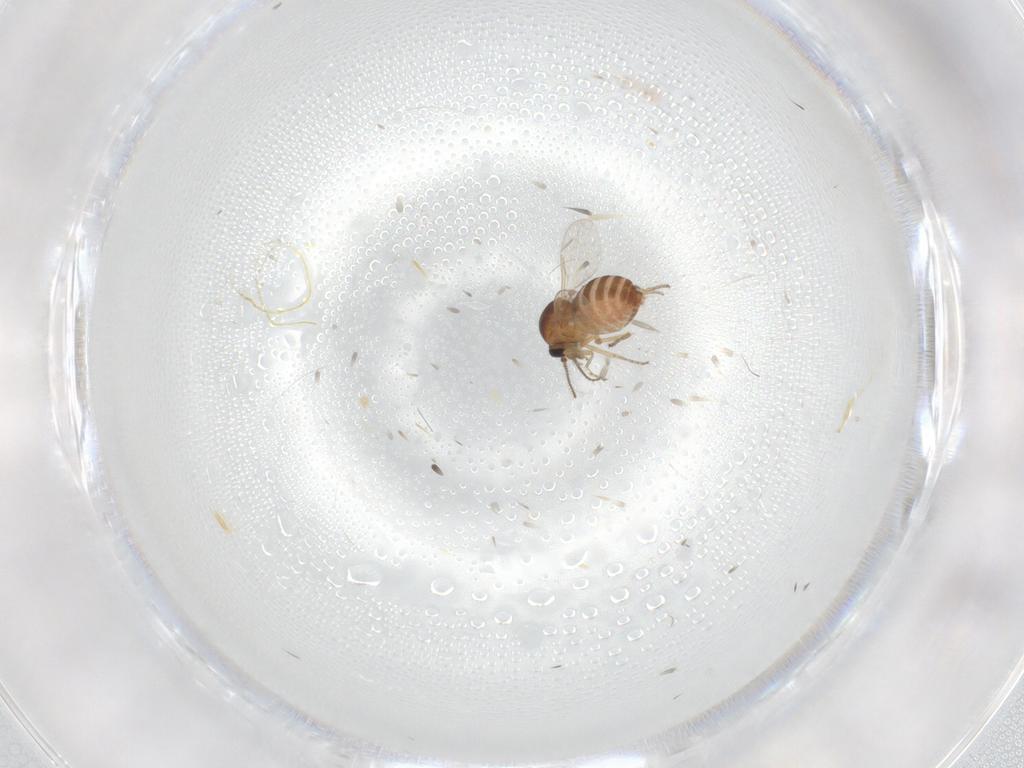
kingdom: Animalia
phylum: Arthropoda
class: Insecta
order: Diptera
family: Ceratopogonidae
